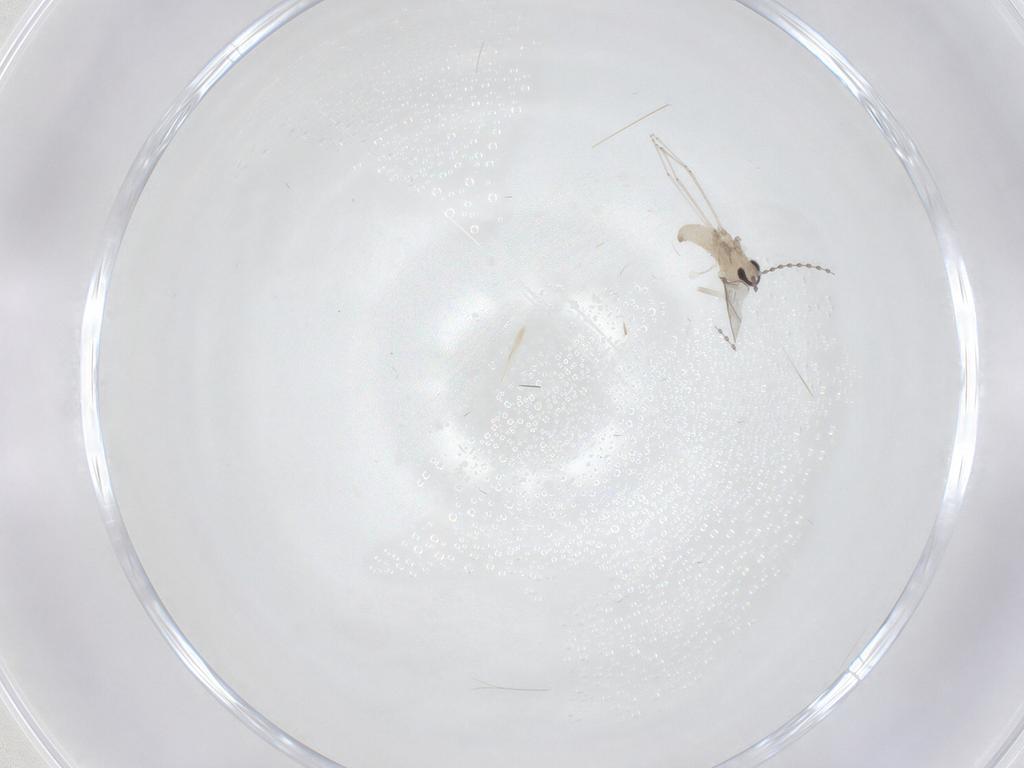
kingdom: Animalia
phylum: Arthropoda
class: Insecta
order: Diptera
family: Cecidomyiidae
